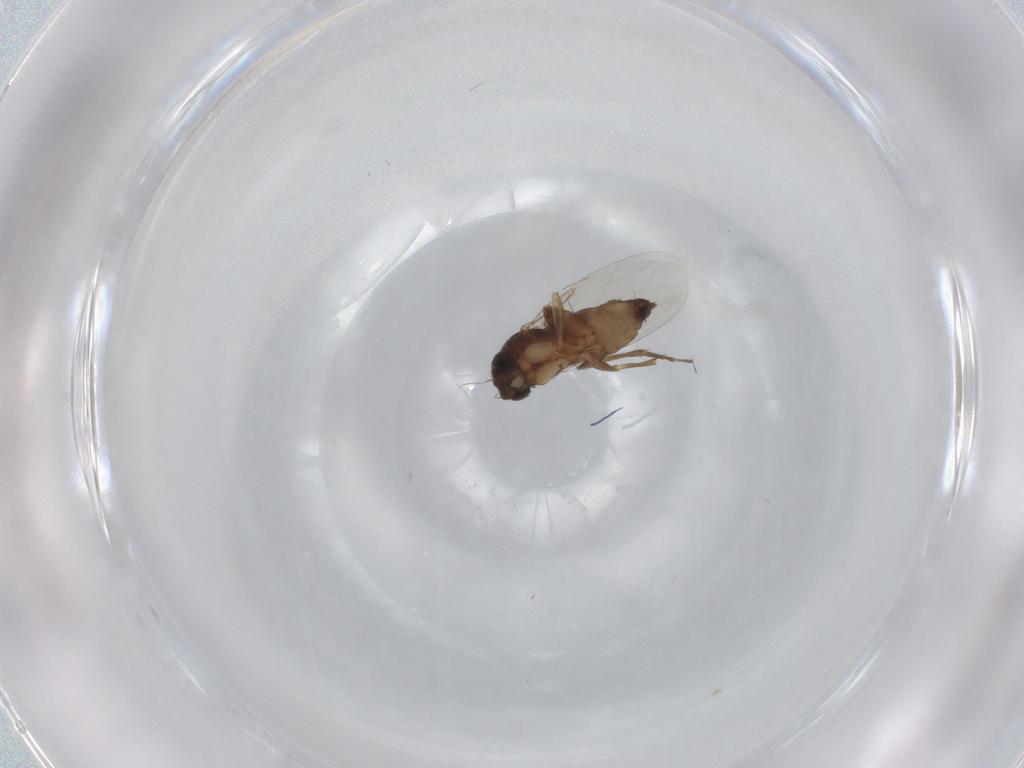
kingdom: Animalia
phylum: Arthropoda
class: Insecta
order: Diptera
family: Phoridae
